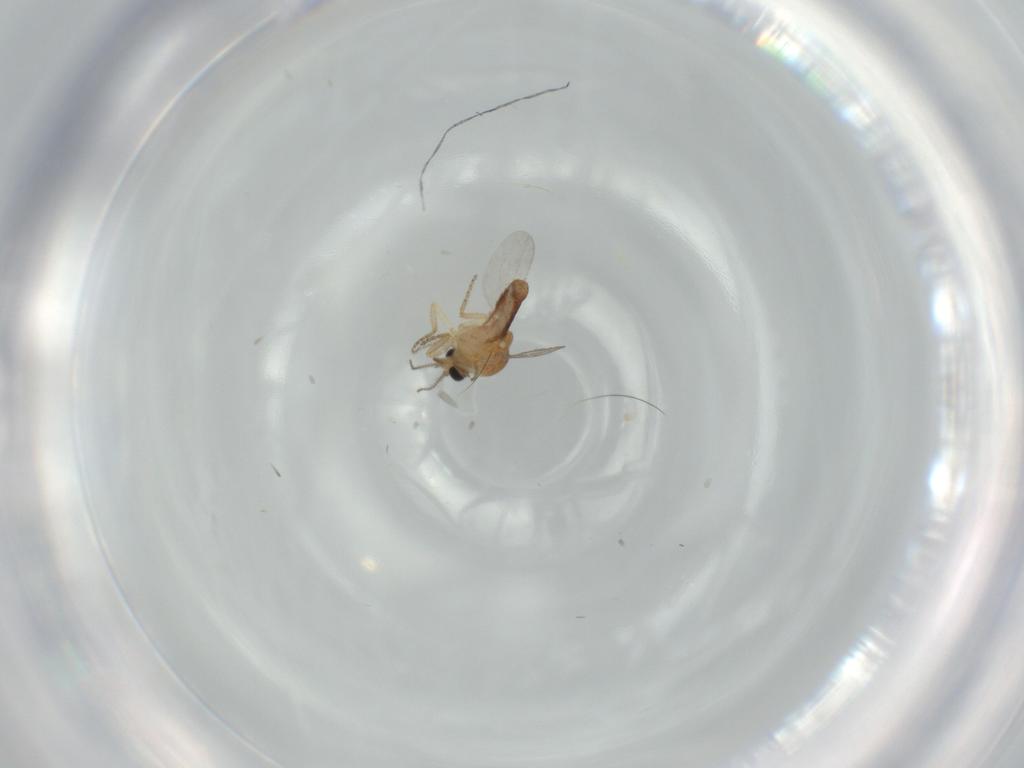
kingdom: Animalia
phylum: Arthropoda
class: Insecta
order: Diptera
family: Ceratopogonidae
